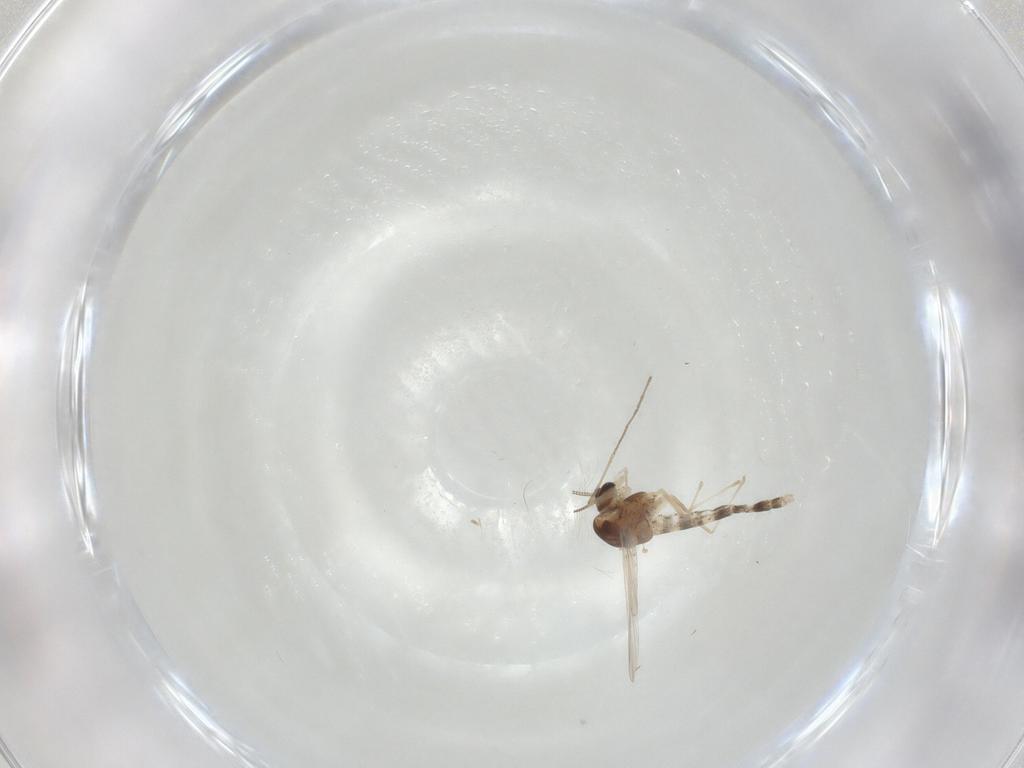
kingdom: Animalia
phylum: Arthropoda
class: Insecta
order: Diptera
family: Chironomidae
